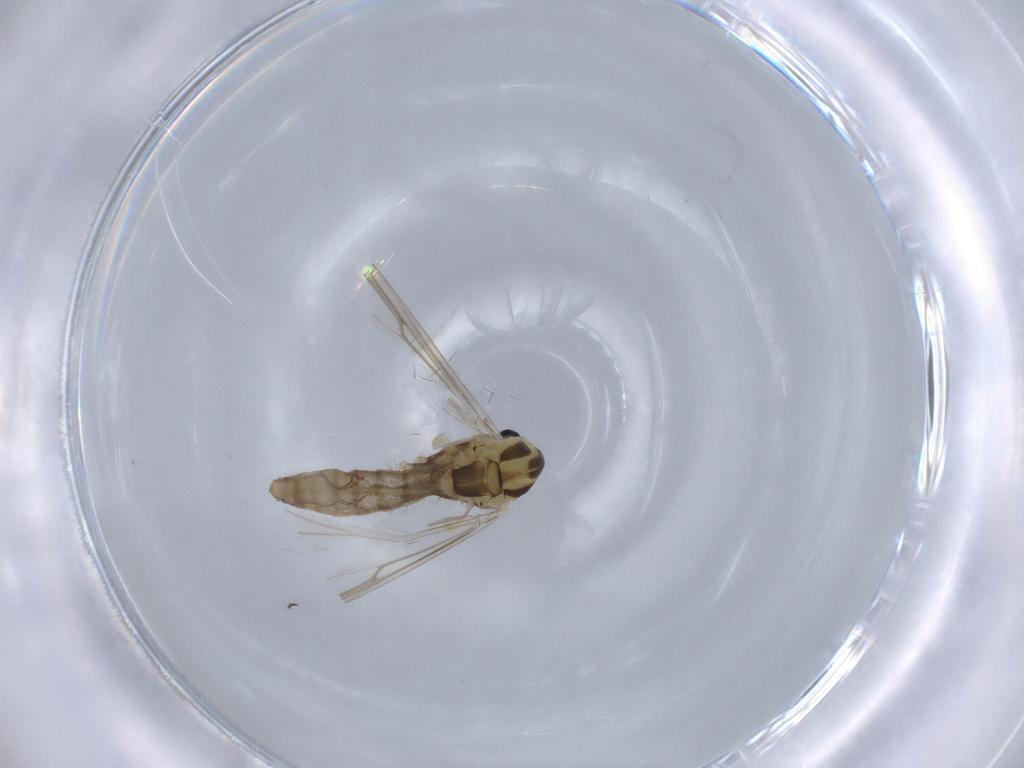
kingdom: Animalia
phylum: Arthropoda
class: Insecta
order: Diptera
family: Chironomidae
